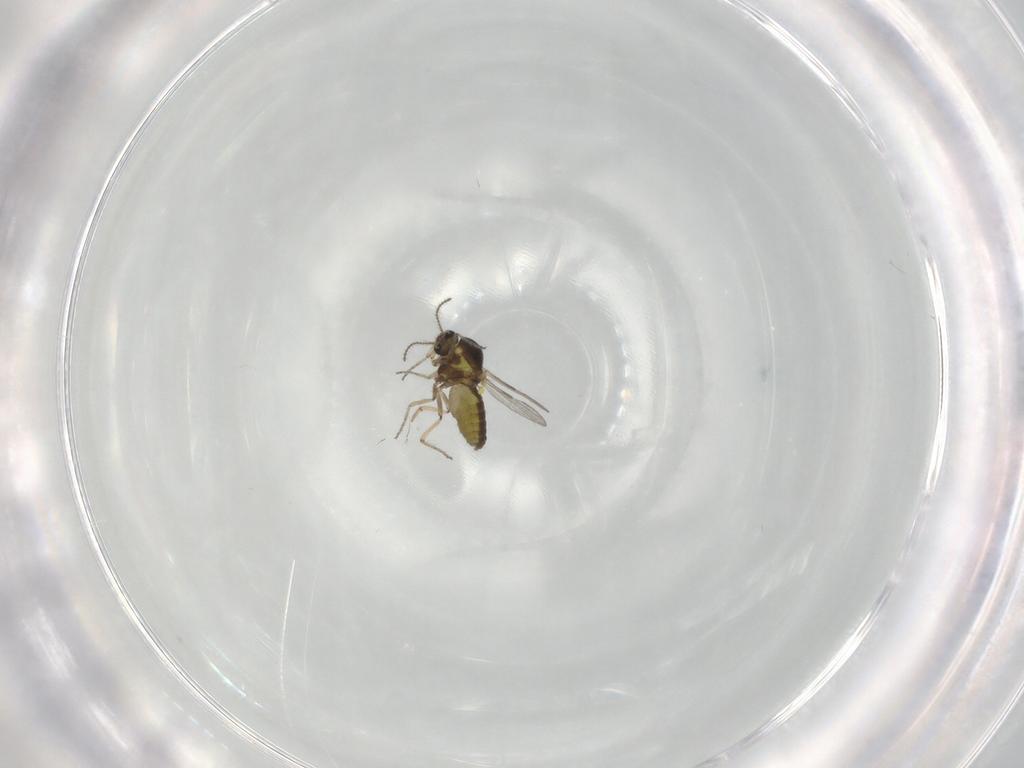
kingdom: Animalia
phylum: Arthropoda
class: Insecta
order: Diptera
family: Ceratopogonidae
